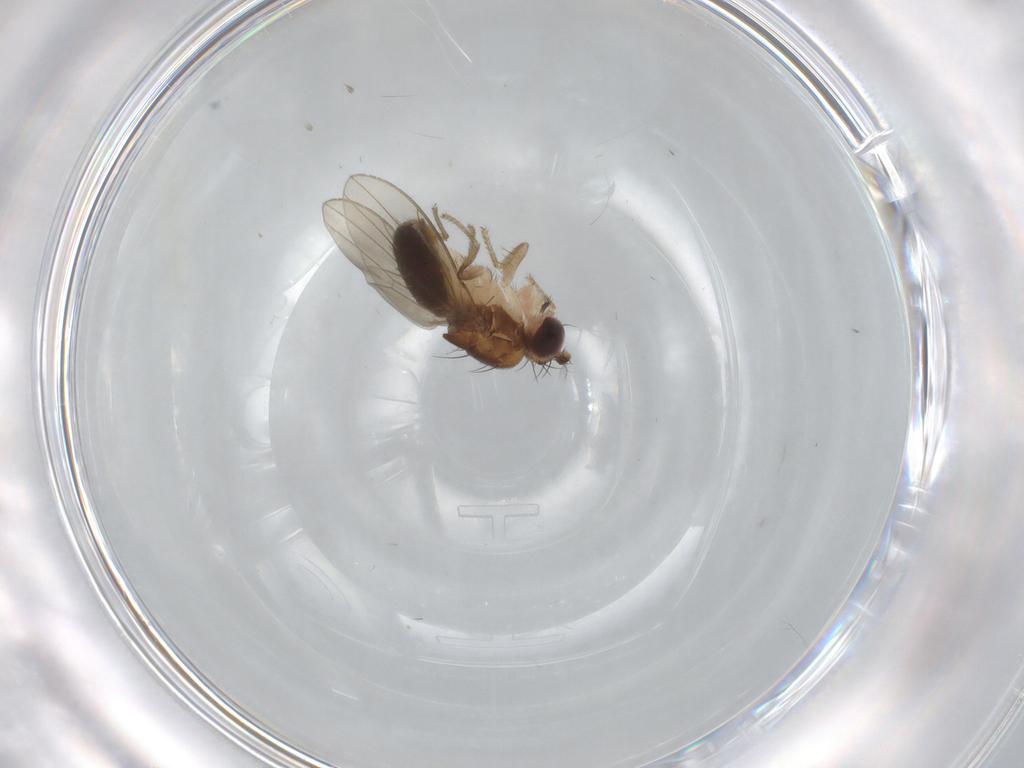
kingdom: Animalia
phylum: Arthropoda
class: Insecta
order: Diptera
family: Drosophilidae
